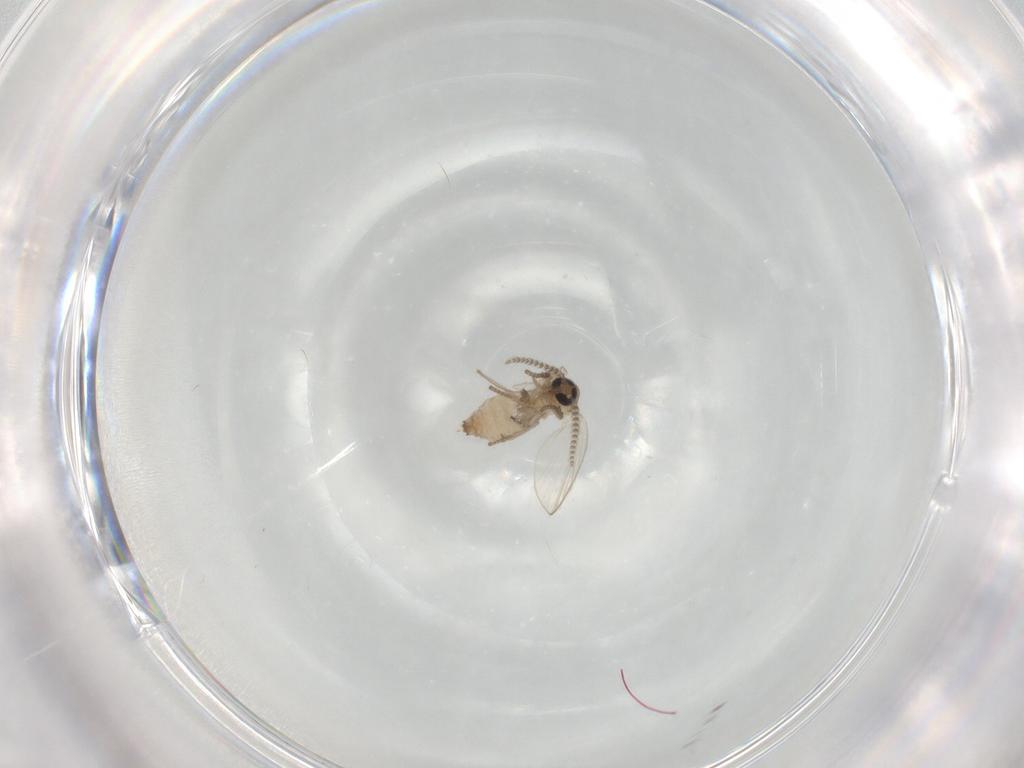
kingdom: Animalia
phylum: Arthropoda
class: Insecta
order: Diptera
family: Psychodidae
